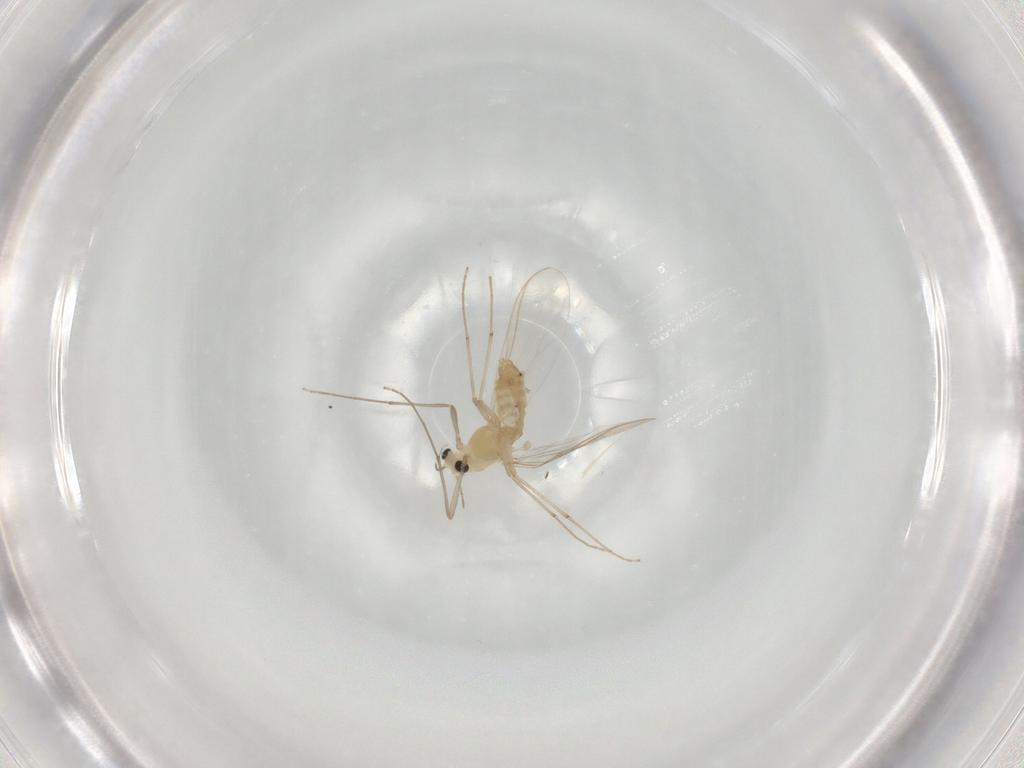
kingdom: Animalia
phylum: Arthropoda
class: Insecta
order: Diptera
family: Chironomidae
